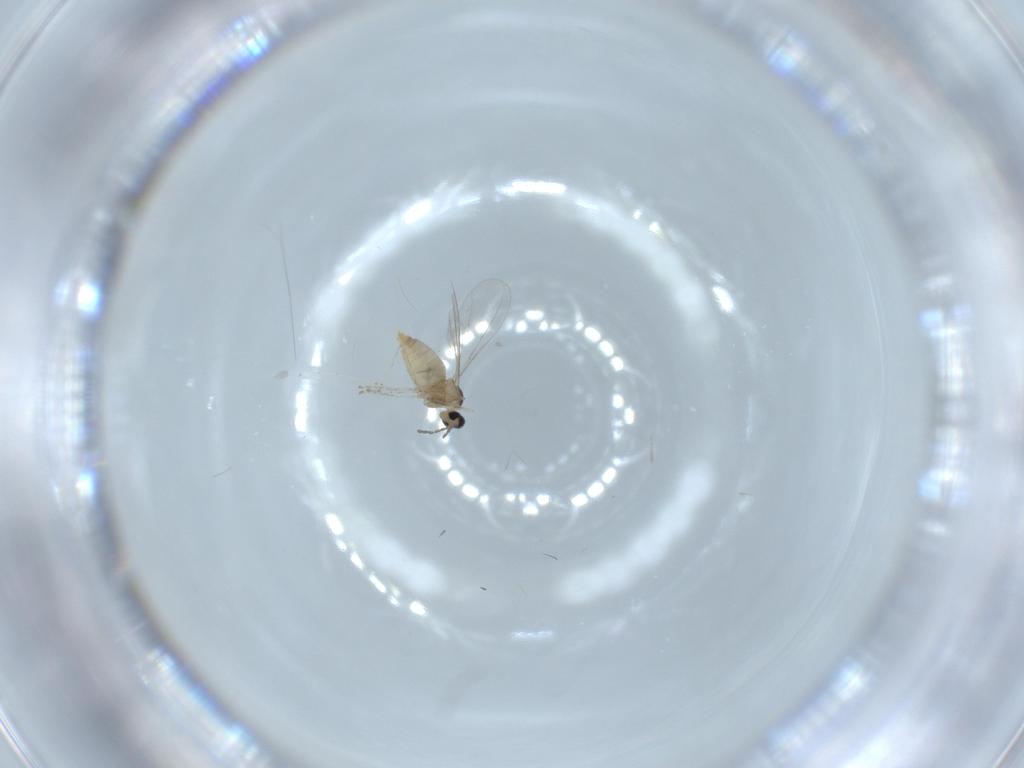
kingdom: Animalia
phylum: Arthropoda
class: Insecta
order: Diptera
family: Cecidomyiidae
